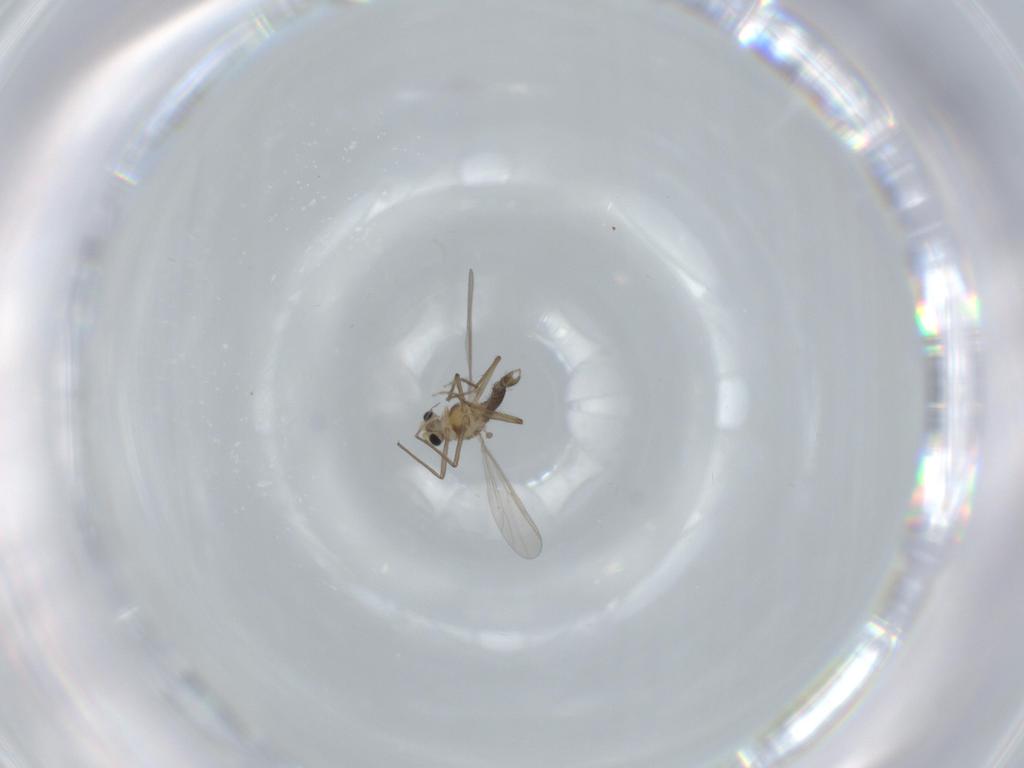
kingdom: Animalia
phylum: Arthropoda
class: Insecta
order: Diptera
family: Chironomidae
